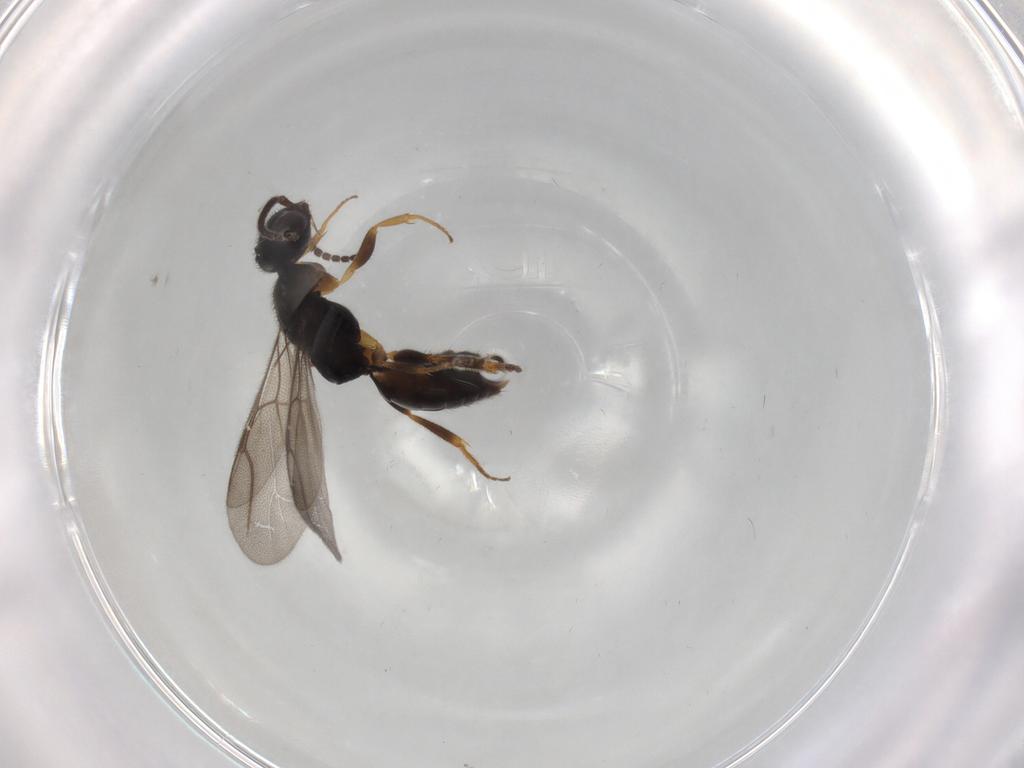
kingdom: Animalia
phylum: Arthropoda
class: Insecta
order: Hymenoptera
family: Bethylidae
